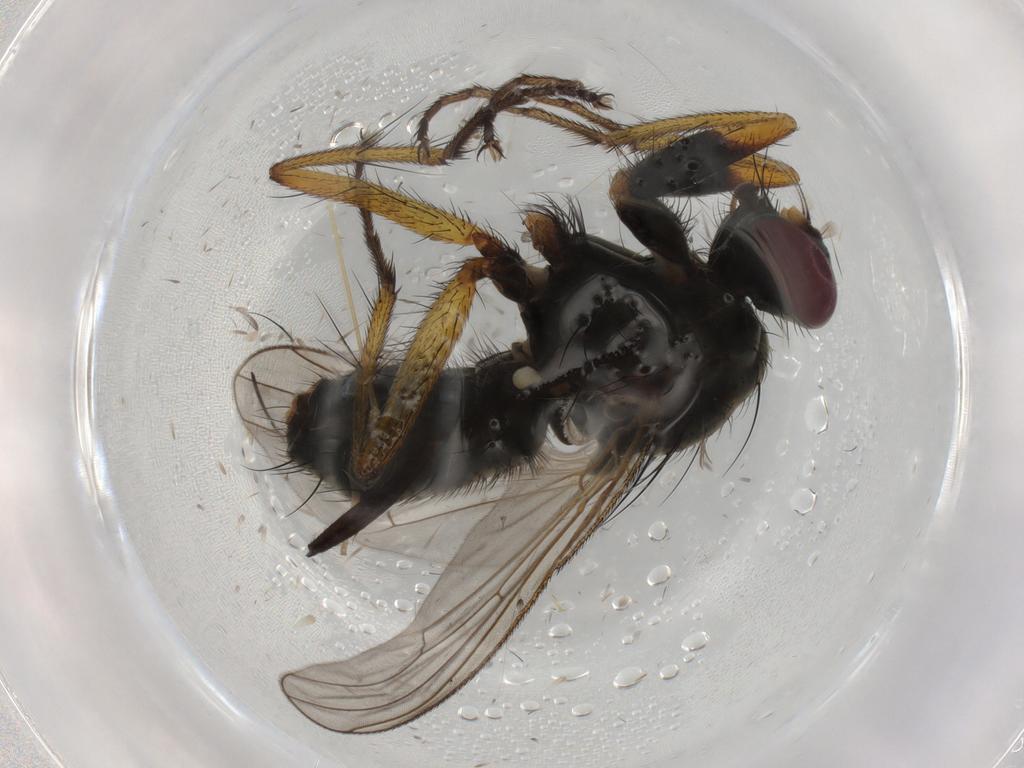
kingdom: Animalia
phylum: Arthropoda
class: Insecta
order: Diptera
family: Muscidae
